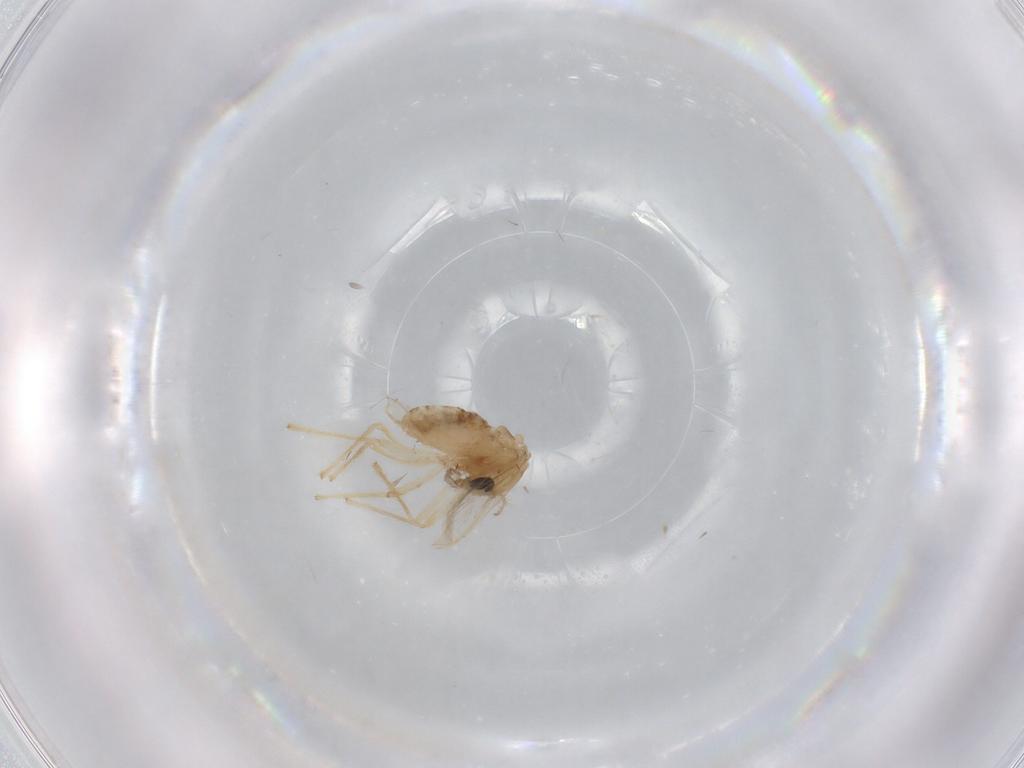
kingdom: Animalia
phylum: Arthropoda
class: Insecta
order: Diptera
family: Chironomidae
